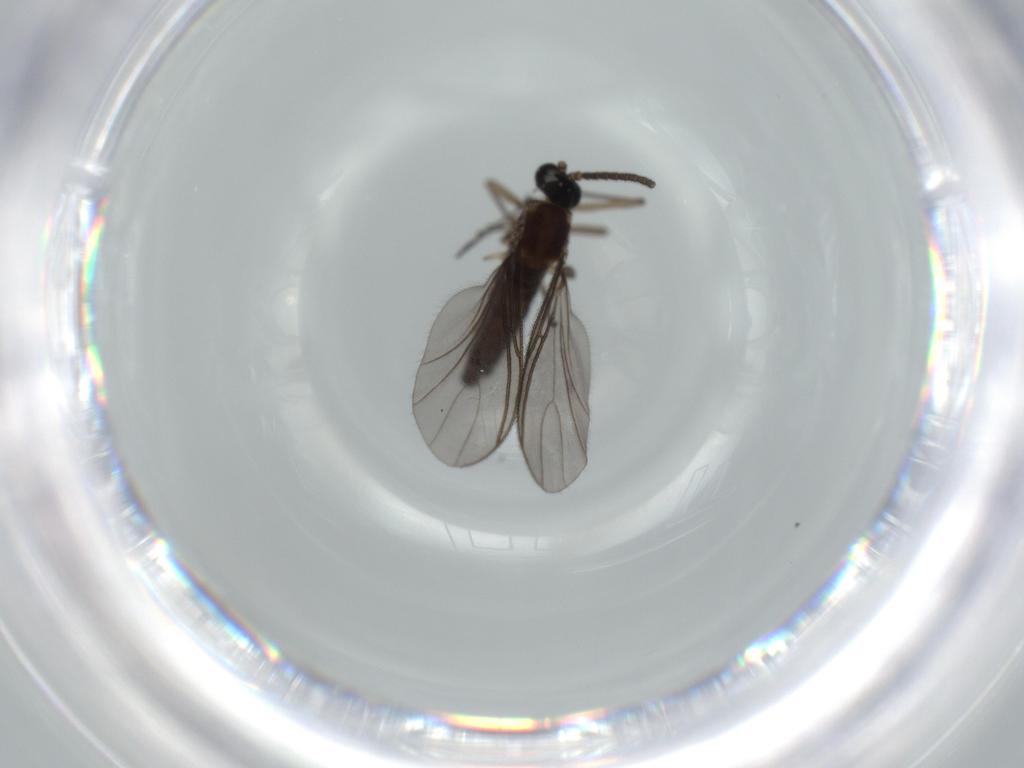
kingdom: Animalia
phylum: Arthropoda
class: Insecta
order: Diptera
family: Sciaridae
